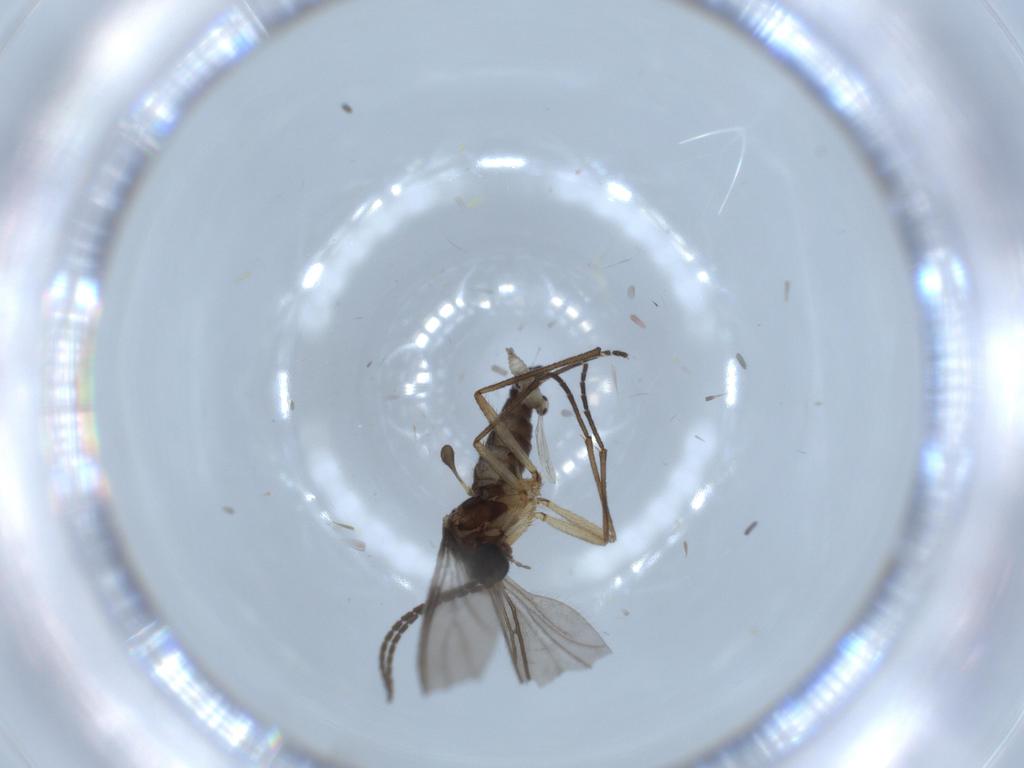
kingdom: Animalia
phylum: Arthropoda
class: Insecta
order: Diptera
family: Cecidomyiidae
